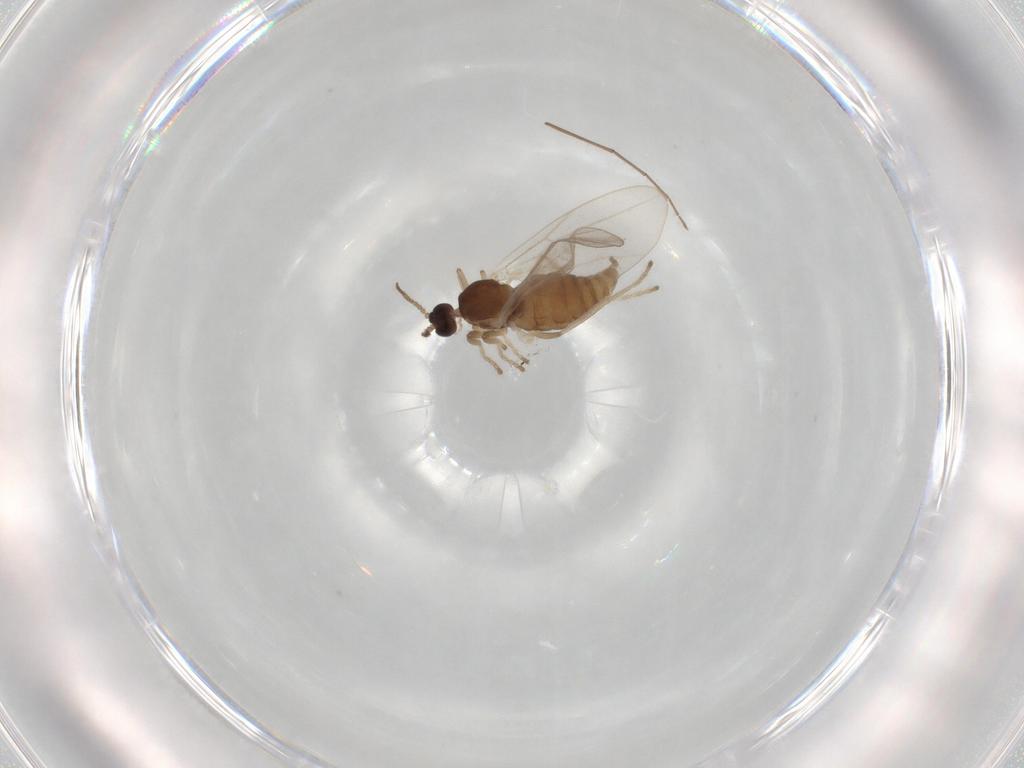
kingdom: Animalia
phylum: Arthropoda
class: Insecta
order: Diptera
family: Cecidomyiidae
